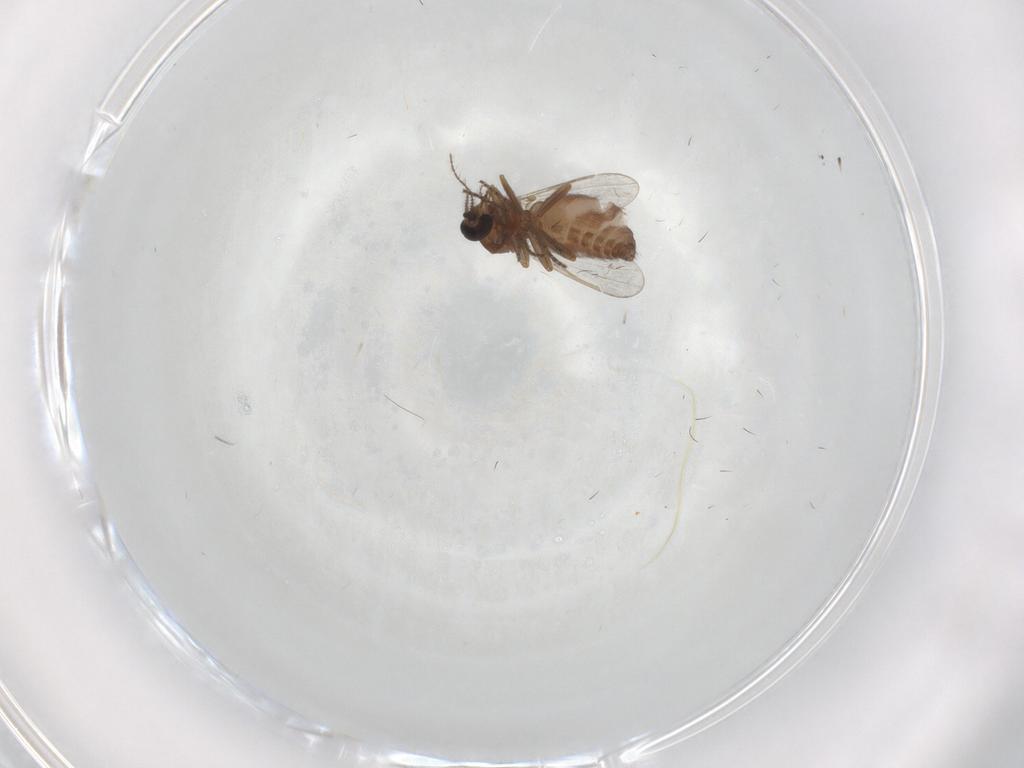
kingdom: Animalia
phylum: Arthropoda
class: Insecta
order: Diptera
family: Ceratopogonidae
